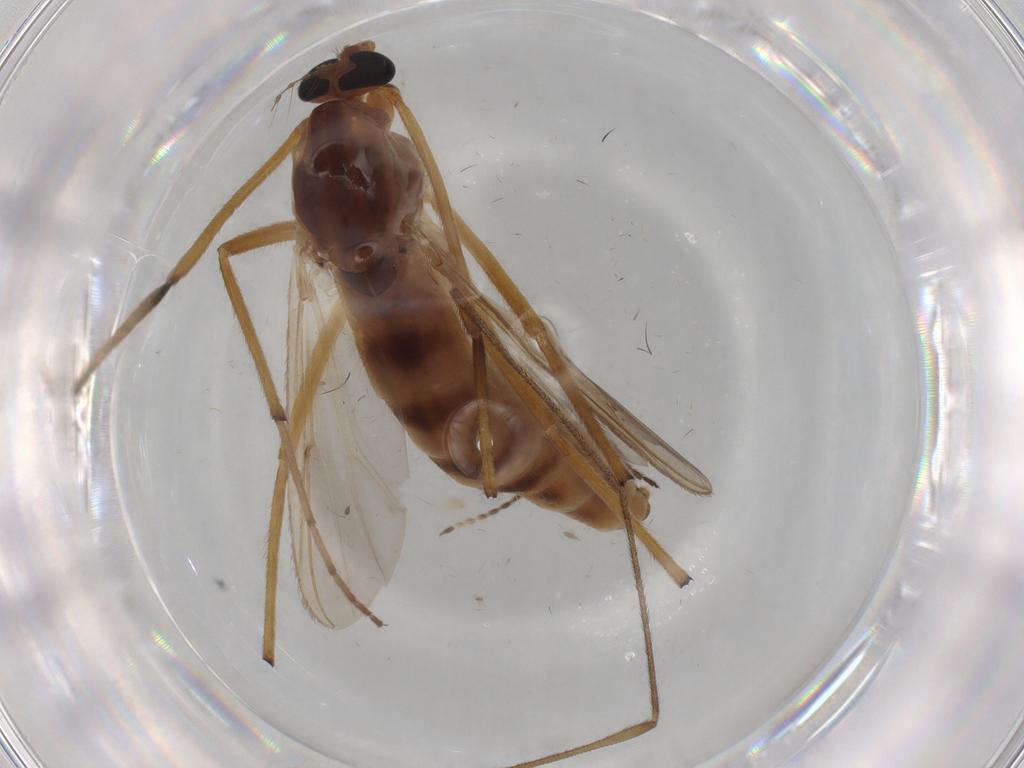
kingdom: Animalia
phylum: Arthropoda
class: Insecta
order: Diptera
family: Limoniidae
